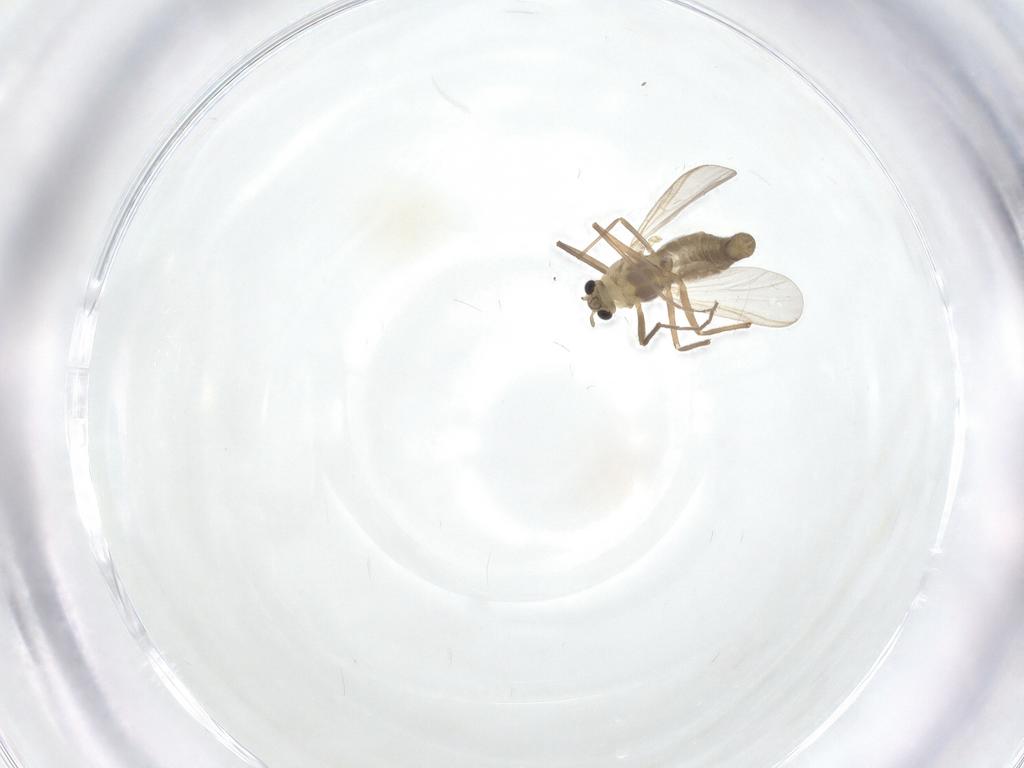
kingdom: Animalia
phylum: Arthropoda
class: Insecta
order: Diptera
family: Chironomidae
